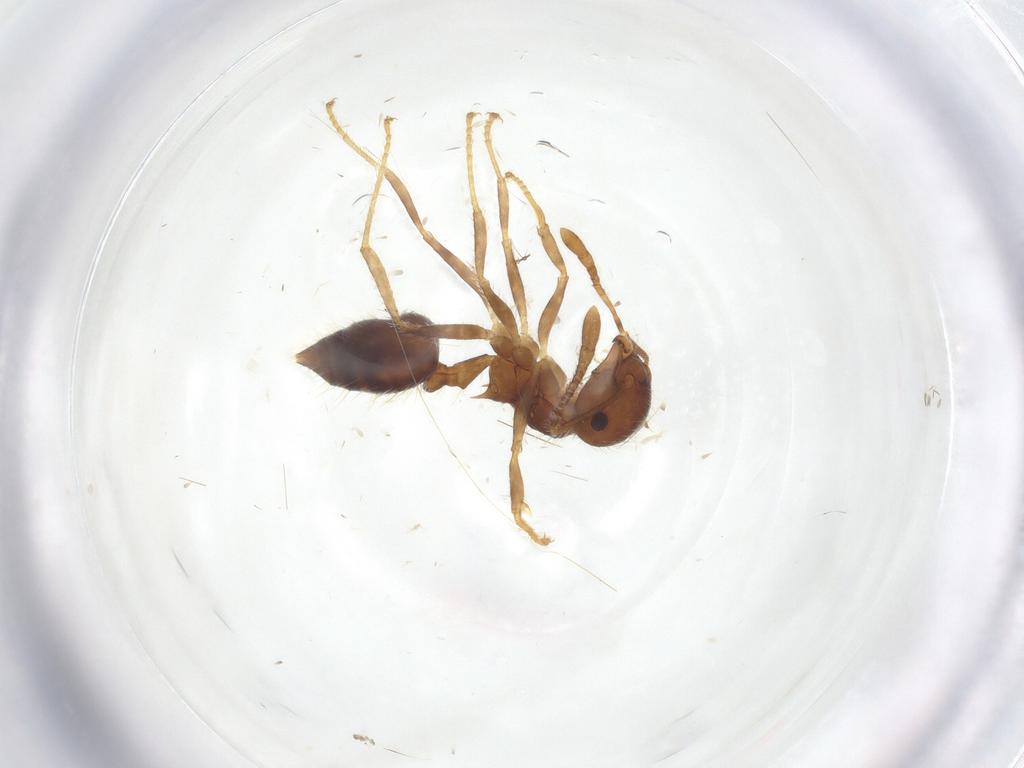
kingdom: Animalia
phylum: Arthropoda
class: Insecta
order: Hymenoptera
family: Formicidae
